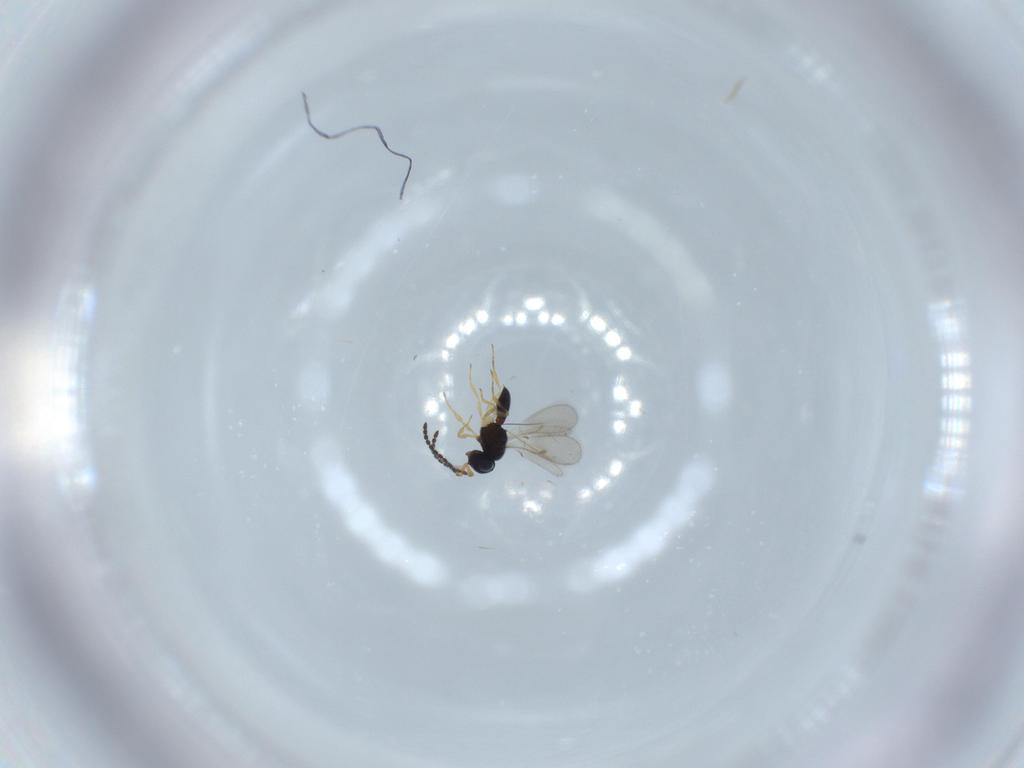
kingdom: Animalia
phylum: Arthropoda
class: Insecta
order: Hymenoptera
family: Scelionidae
